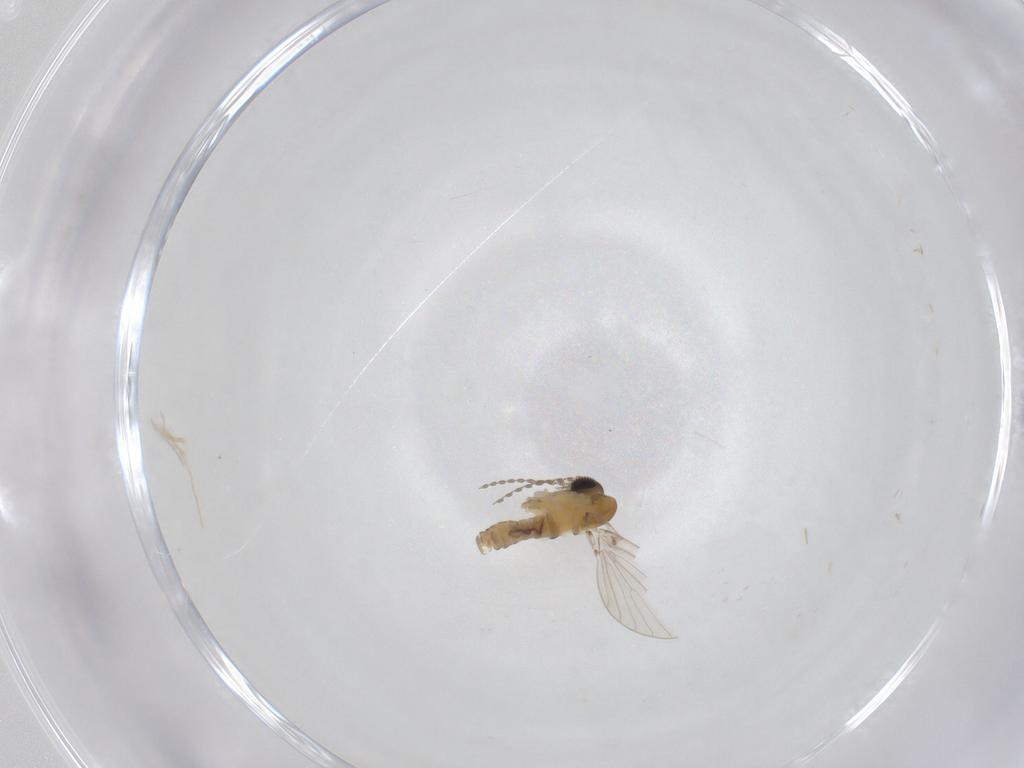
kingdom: Animalia
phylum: Arthropoda
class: Insecta
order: Diptera
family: Stratiomyidae
